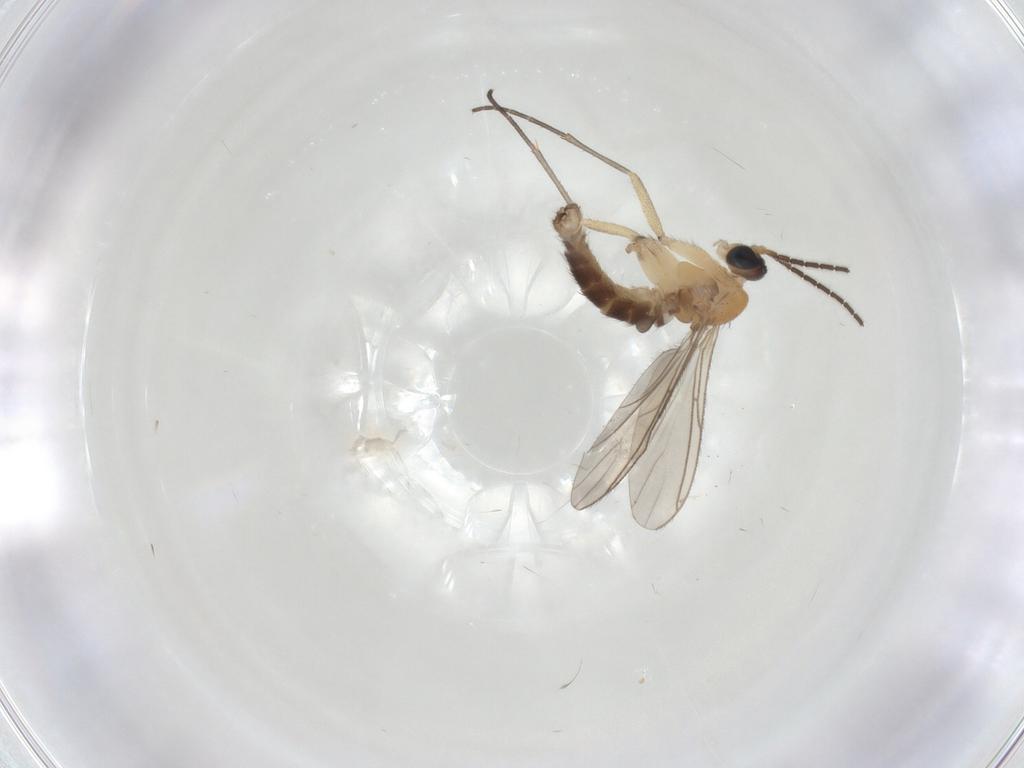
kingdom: Animalia
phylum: Arthropoda
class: Insecta
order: Diptera
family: Sciaridae
